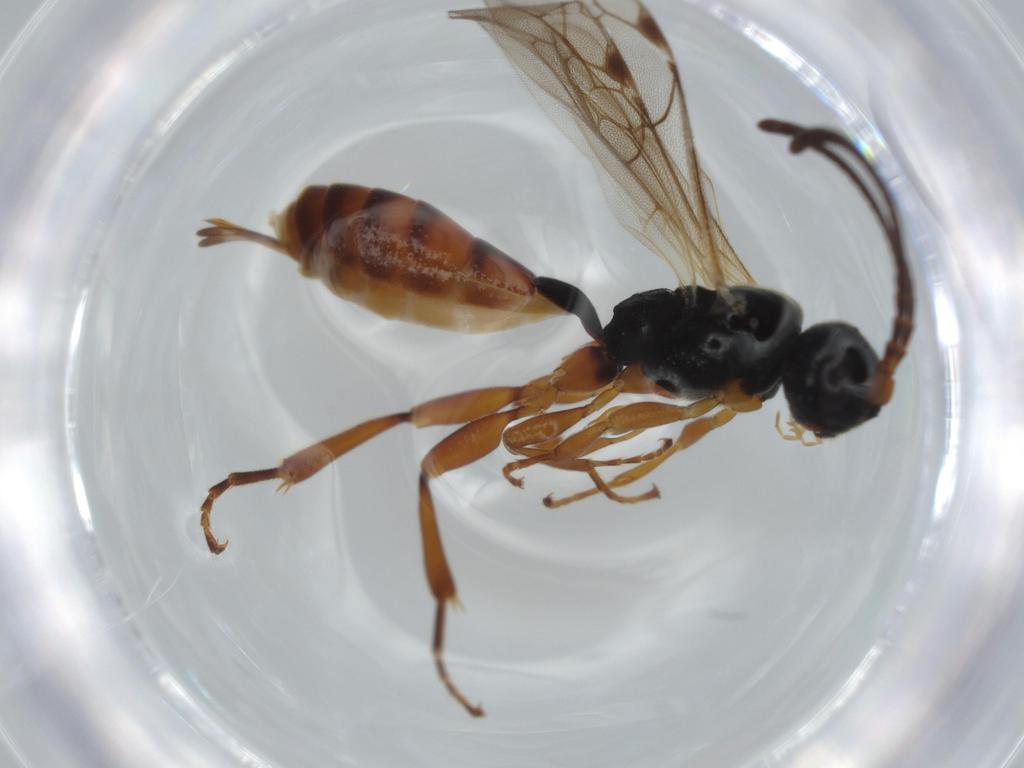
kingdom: Animalia
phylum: Arthropoda
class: Insecta
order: Hymenoptera
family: Ichneumonidae
